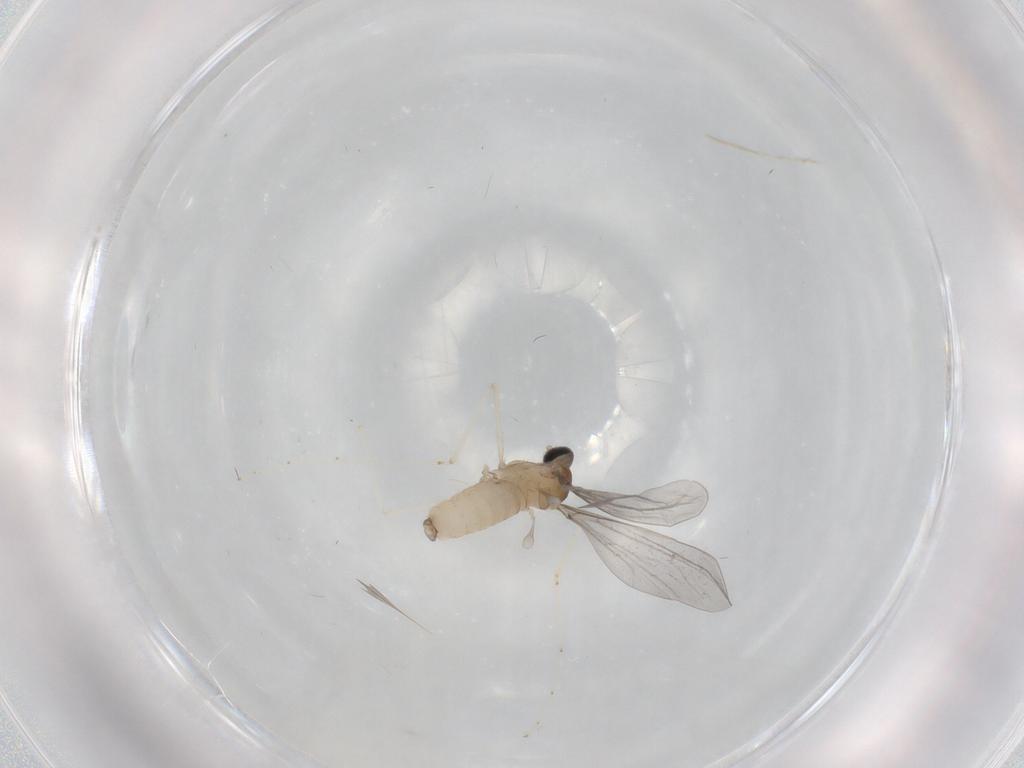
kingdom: Animalia
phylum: Arthropoda
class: Insecta
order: Diptera
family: Cecidomyiidae
